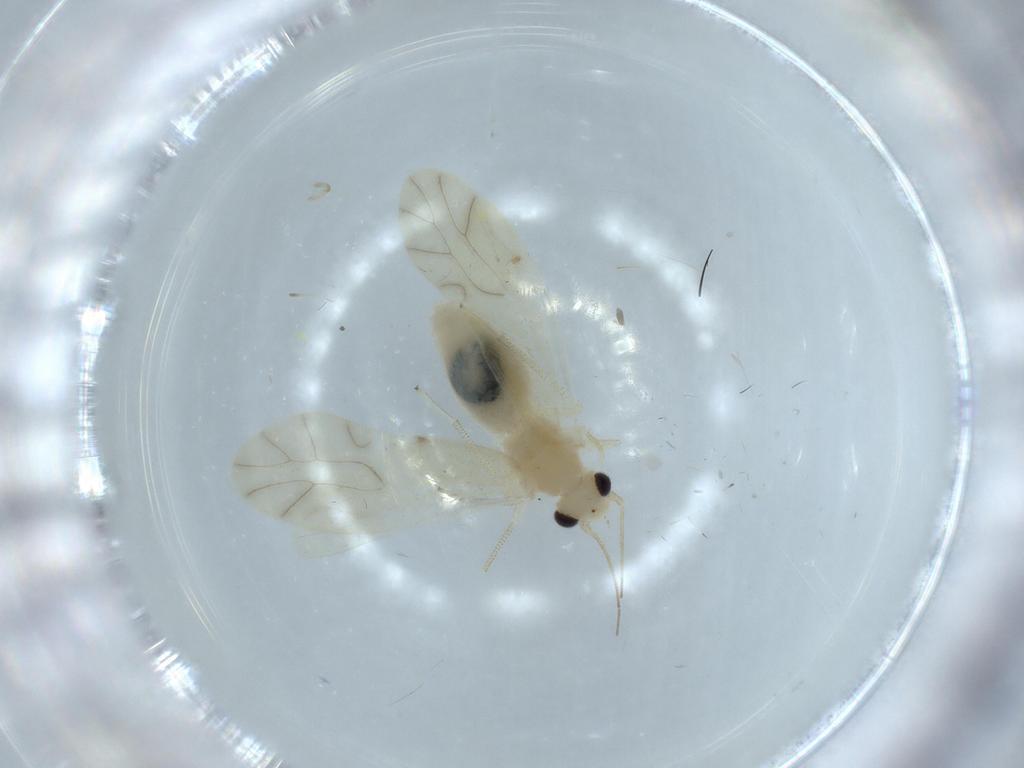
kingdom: Animalia
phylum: Arthropoda
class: Insecta
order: Psocodea
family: Caeciliusidae
